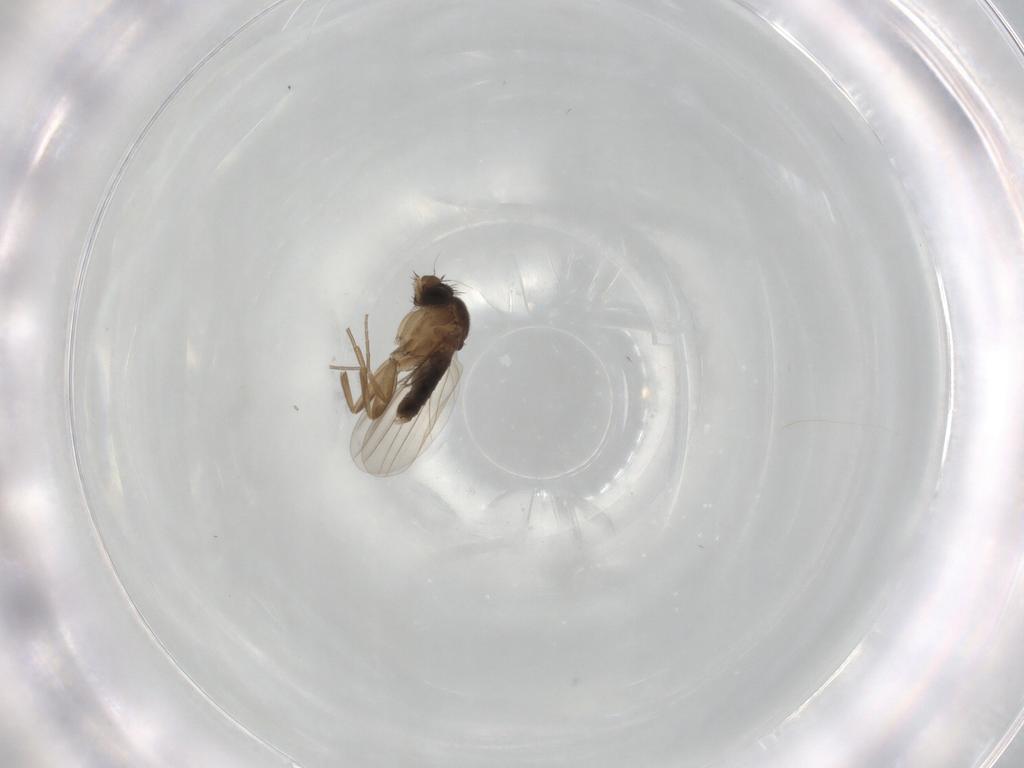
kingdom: Animalia
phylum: Arthropoda
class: Insecta
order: Diptera
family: Phoridae
